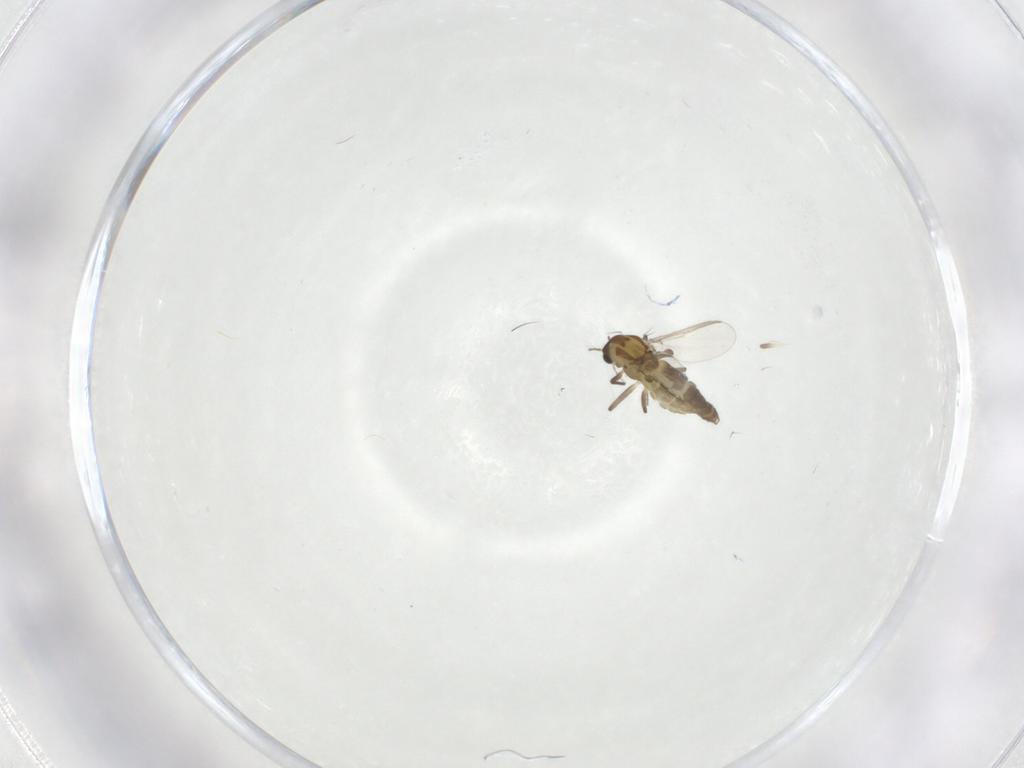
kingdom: Animalia
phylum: Arthropoda
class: Insecta
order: Diptera
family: Chironomidae
